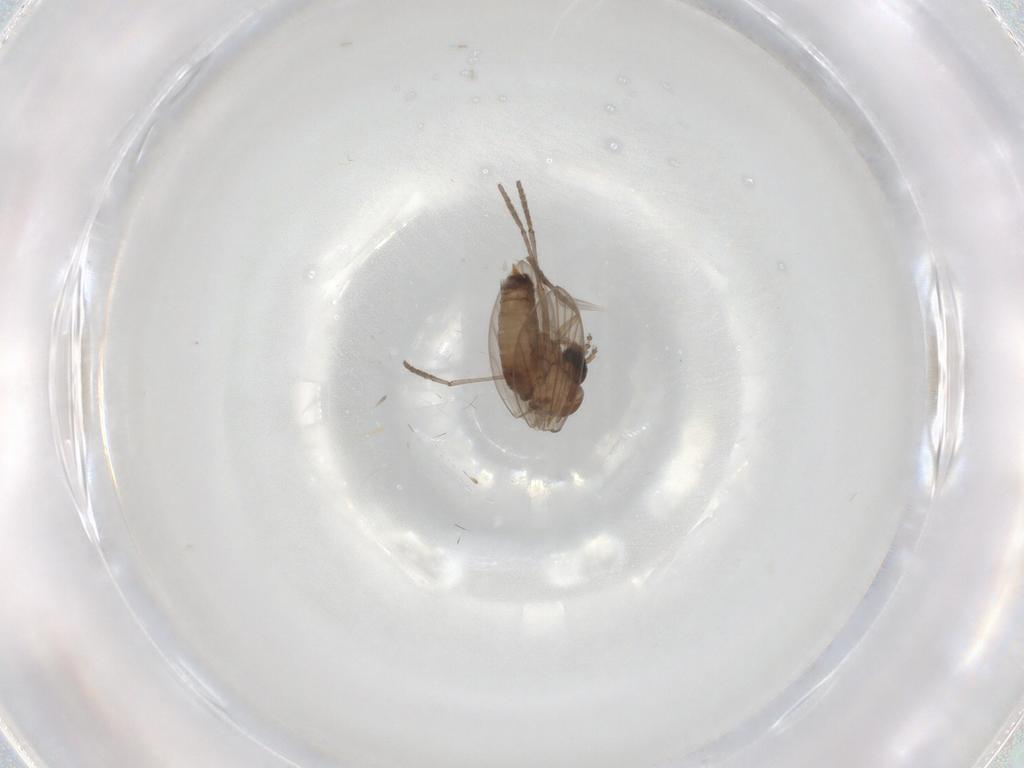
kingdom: Animalia
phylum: Arthropoda
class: Insecta
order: Diptera
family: Psychodidae
